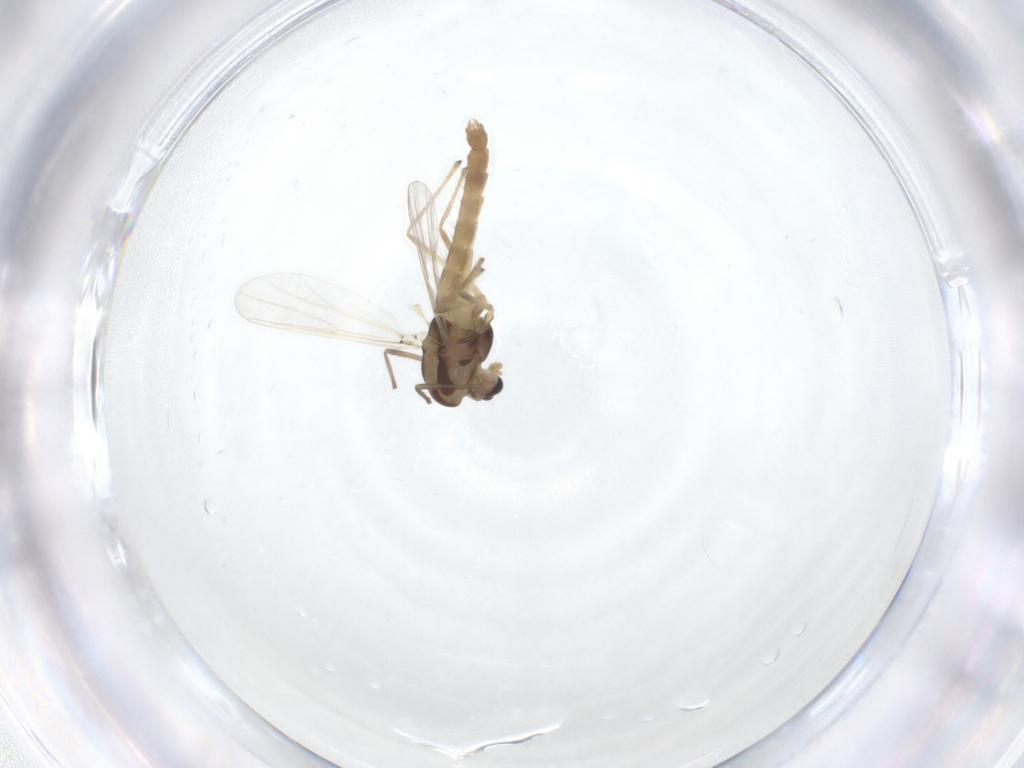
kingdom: Animalia
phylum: Arthropoda
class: Insecta
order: Diptera
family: Chironomidae
